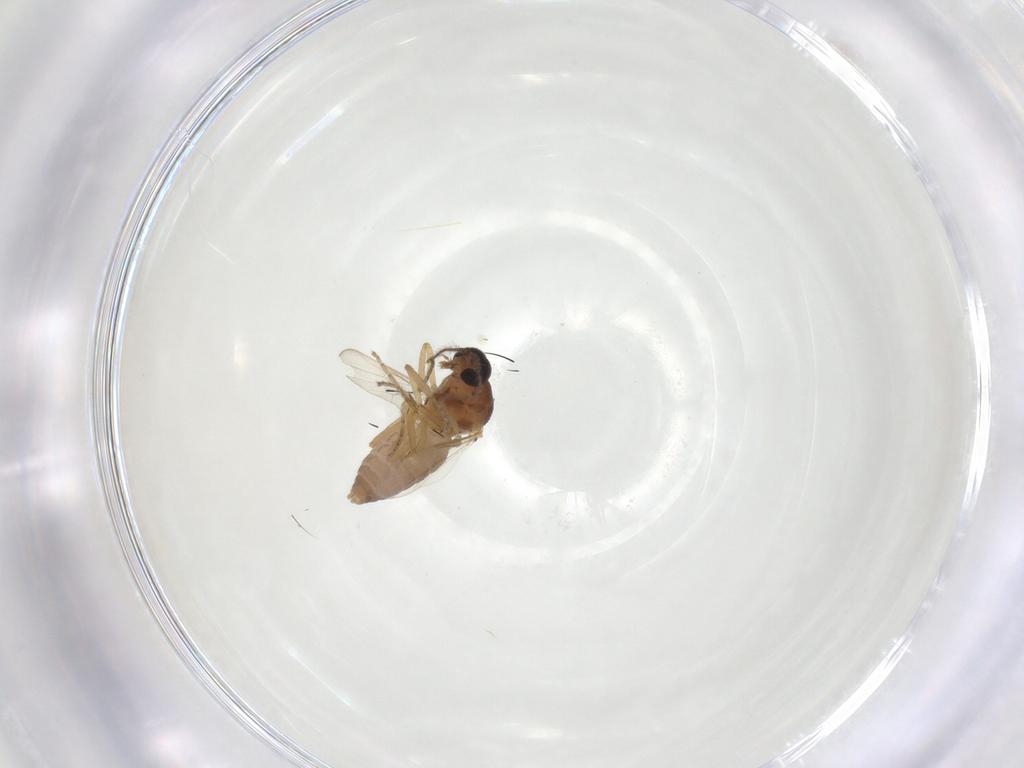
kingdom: Animalia
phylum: Arthropoda
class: Insecta
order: Diptera
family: Ceratopogonidae
